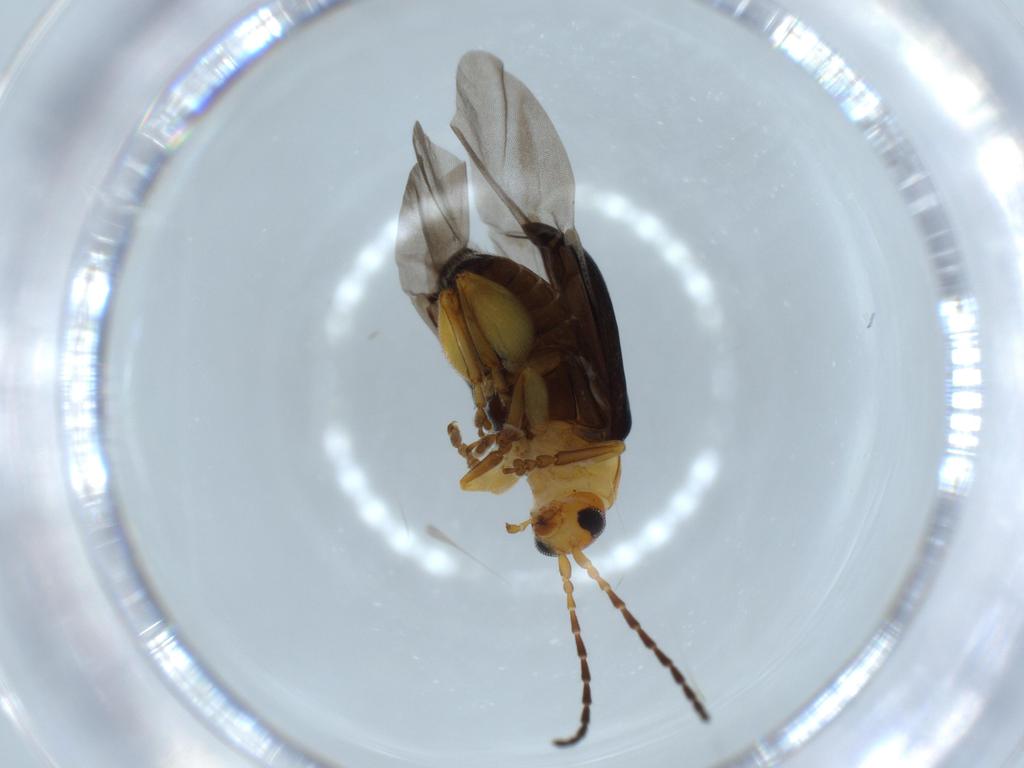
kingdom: Animalia
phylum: Arthropoda
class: Insecta
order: Coleoptera
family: Chrysomelidae
